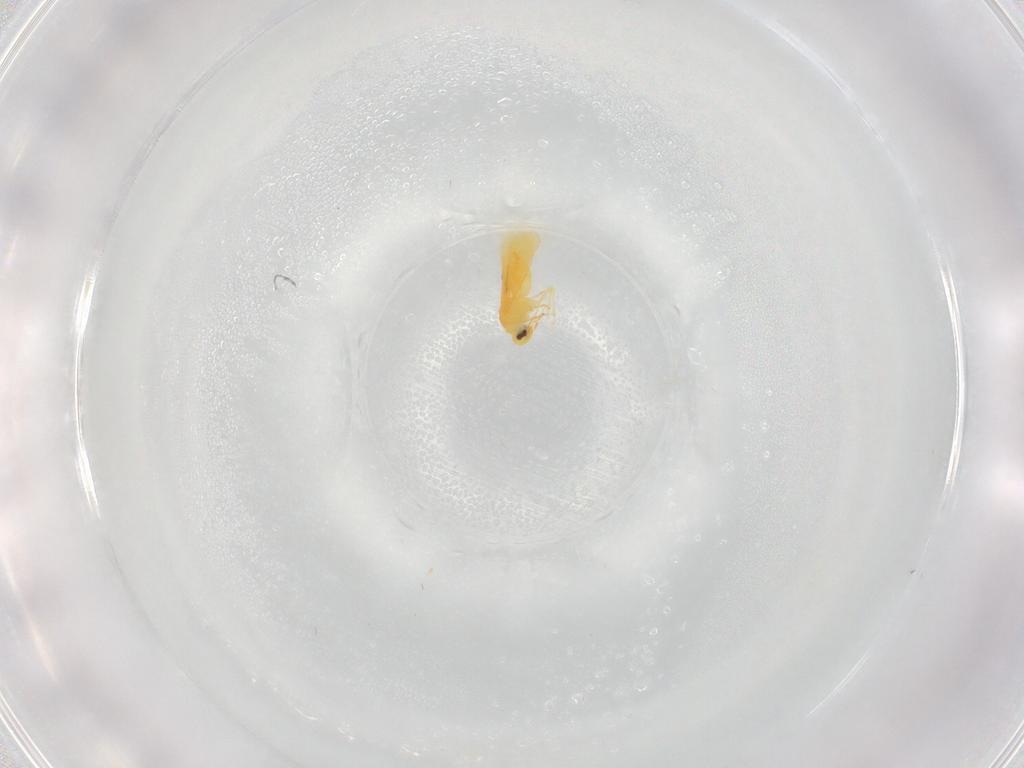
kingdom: Animalia
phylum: Arthropoda
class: Insecta
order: Hemiptera
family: Aleyrodidae
